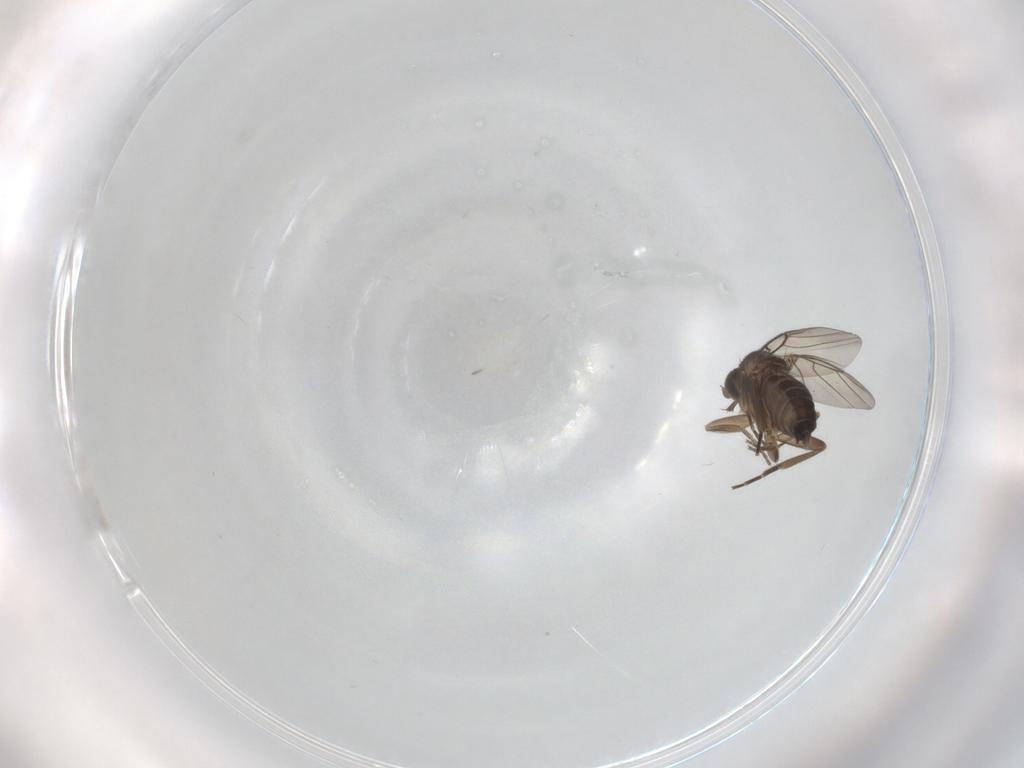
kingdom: Animalia
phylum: Arthropoda
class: Insecta
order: Diptera
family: Phoridae
